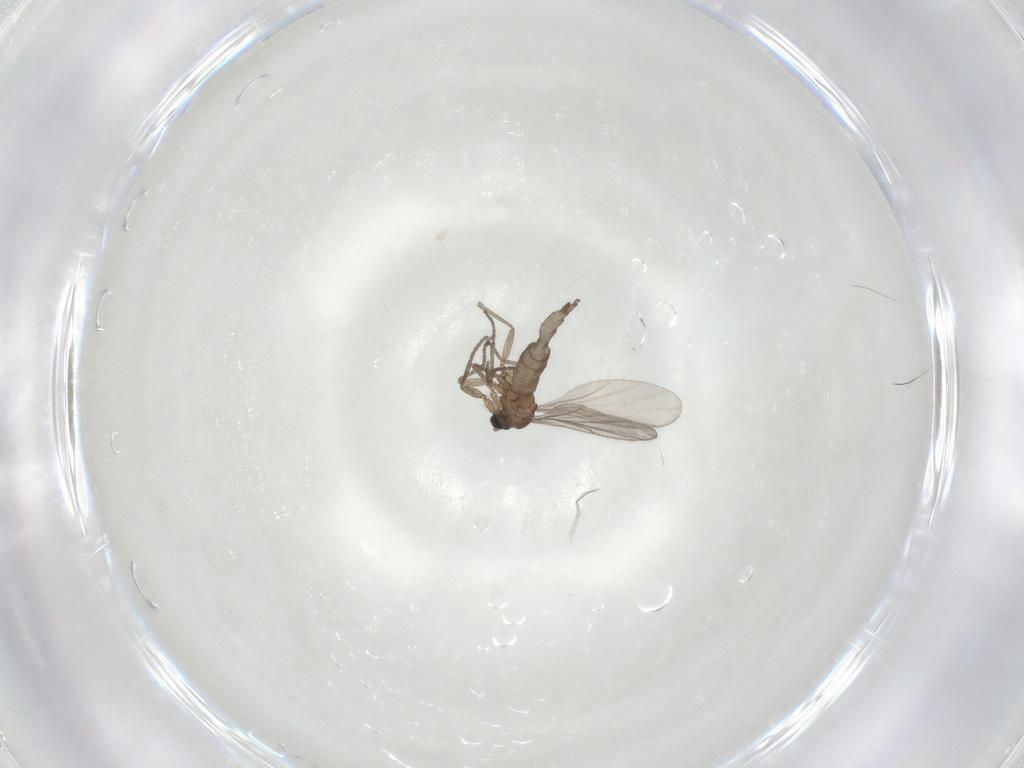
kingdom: Animalia
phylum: Arthropoda
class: Insecta
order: Diptera
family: Sciaridae
